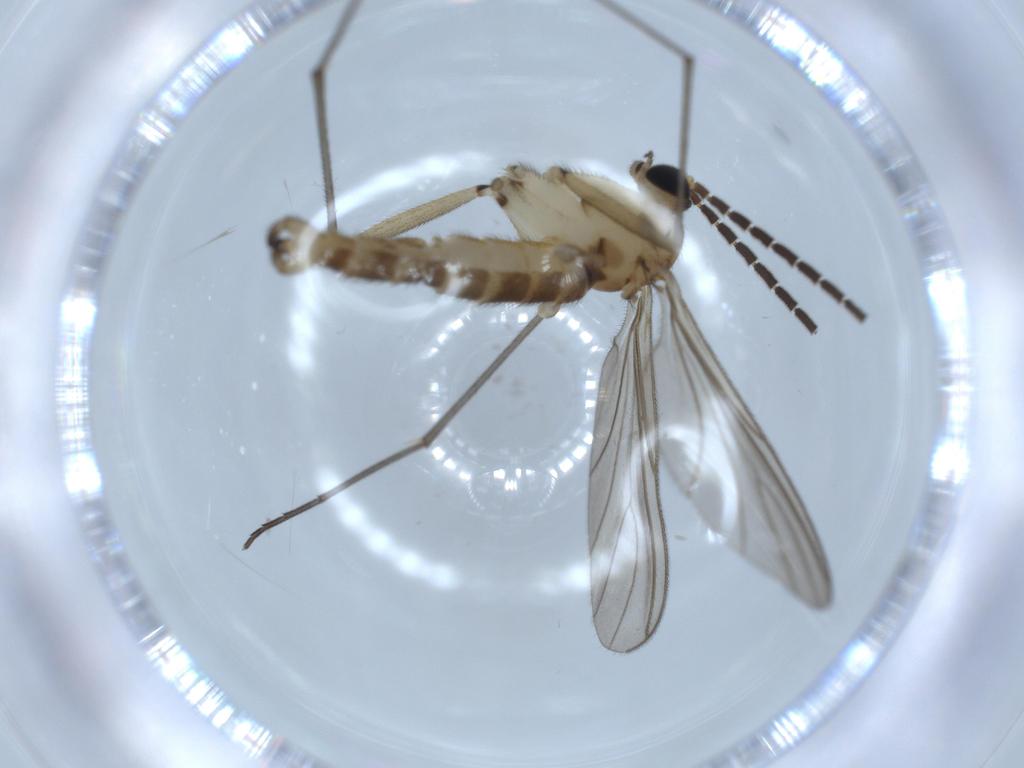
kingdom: Animalia
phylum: Arthropoda
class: Insecta
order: Diptera
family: Sciaridae
